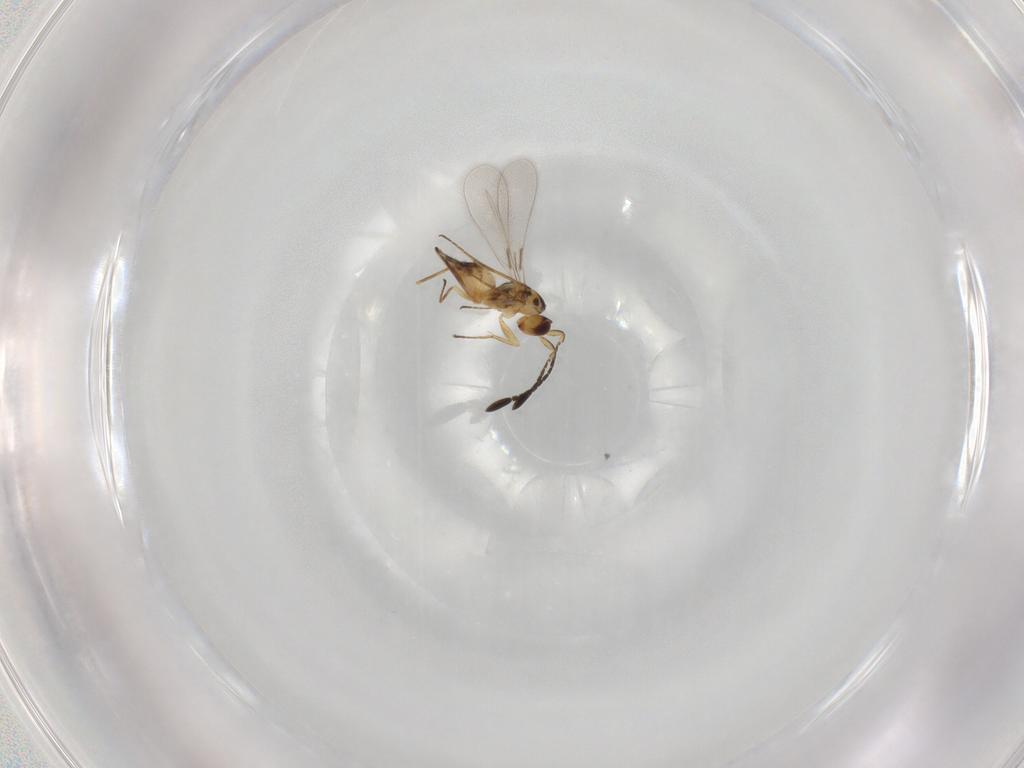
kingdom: Animalia
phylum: Arthropoda
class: Insecta
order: Hymenoptera
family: Mymaridae
